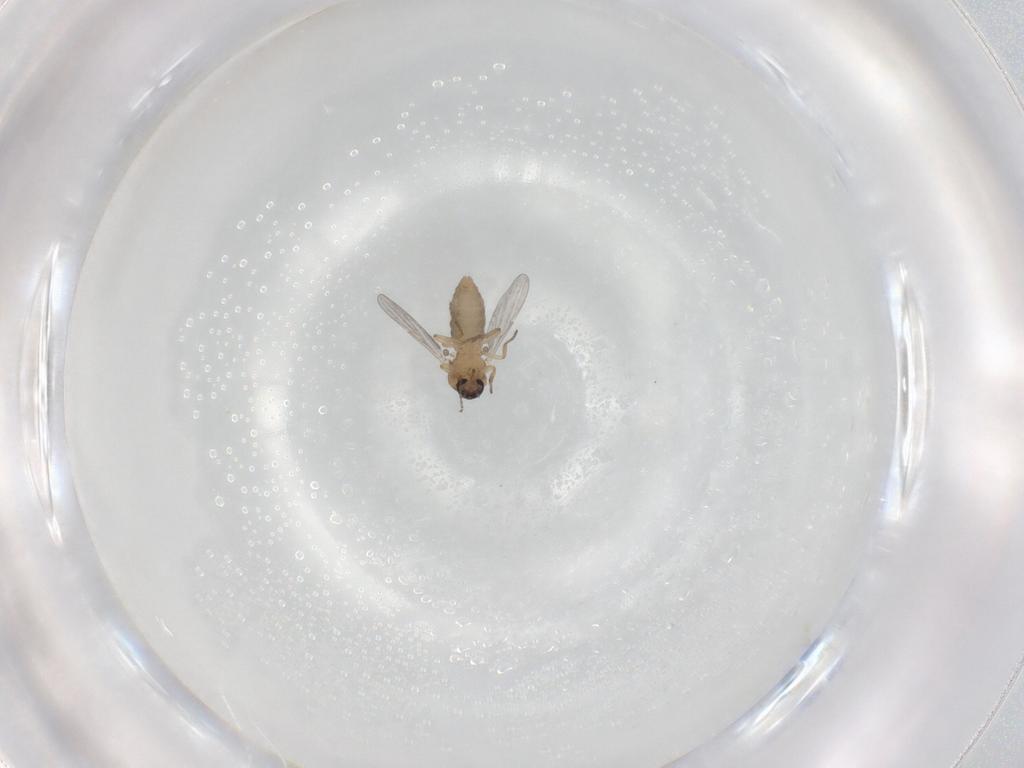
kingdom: Animalia
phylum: Arthropoda
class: Insecta
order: Diptera
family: Ceratopogonidae
